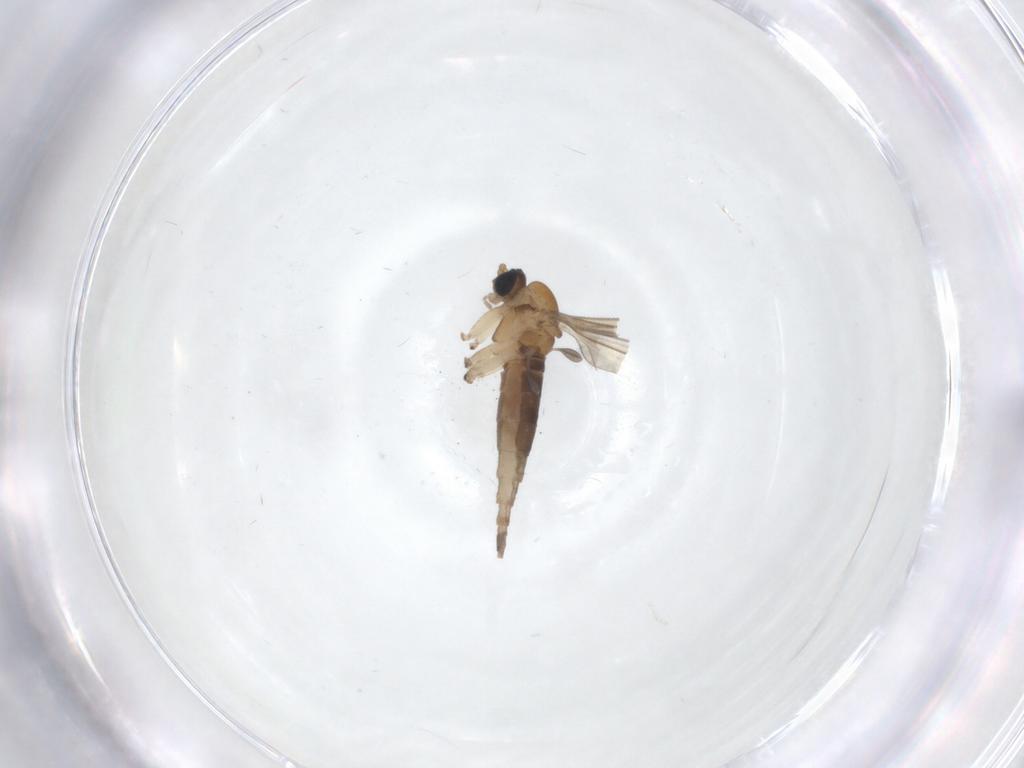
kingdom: Animalia
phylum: Arthropoda
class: Insecta
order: Diptera
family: Sciaridae
